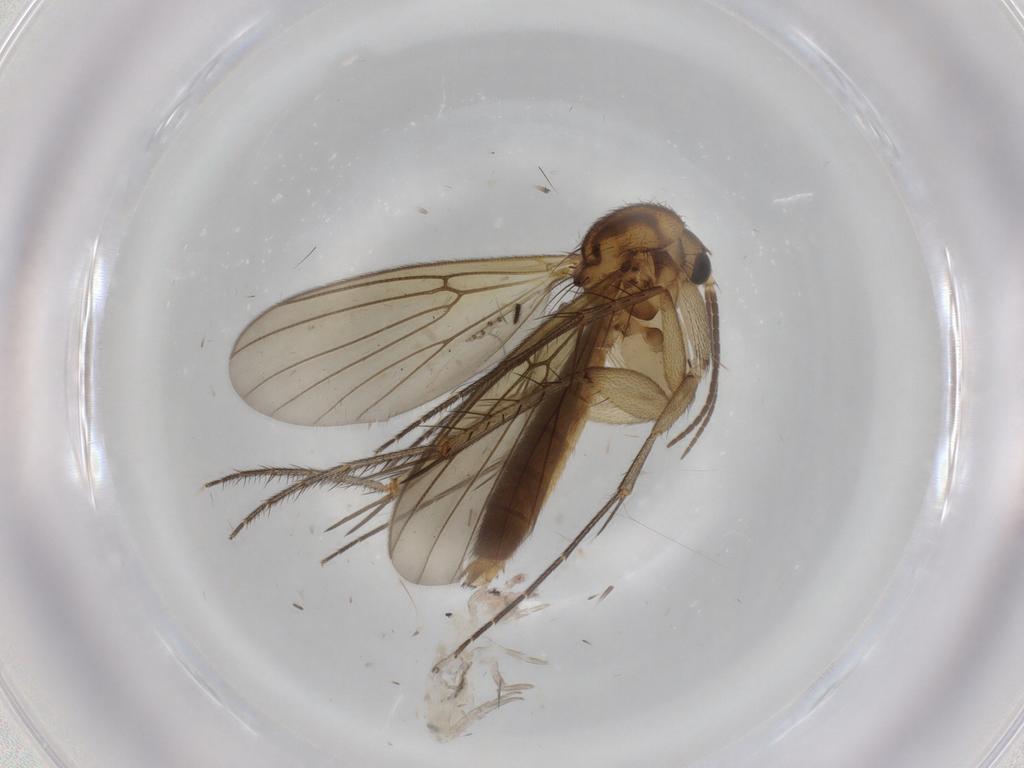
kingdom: Animalia
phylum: Arthropoda
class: Insecta
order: Diptera
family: Mycetophilidae
